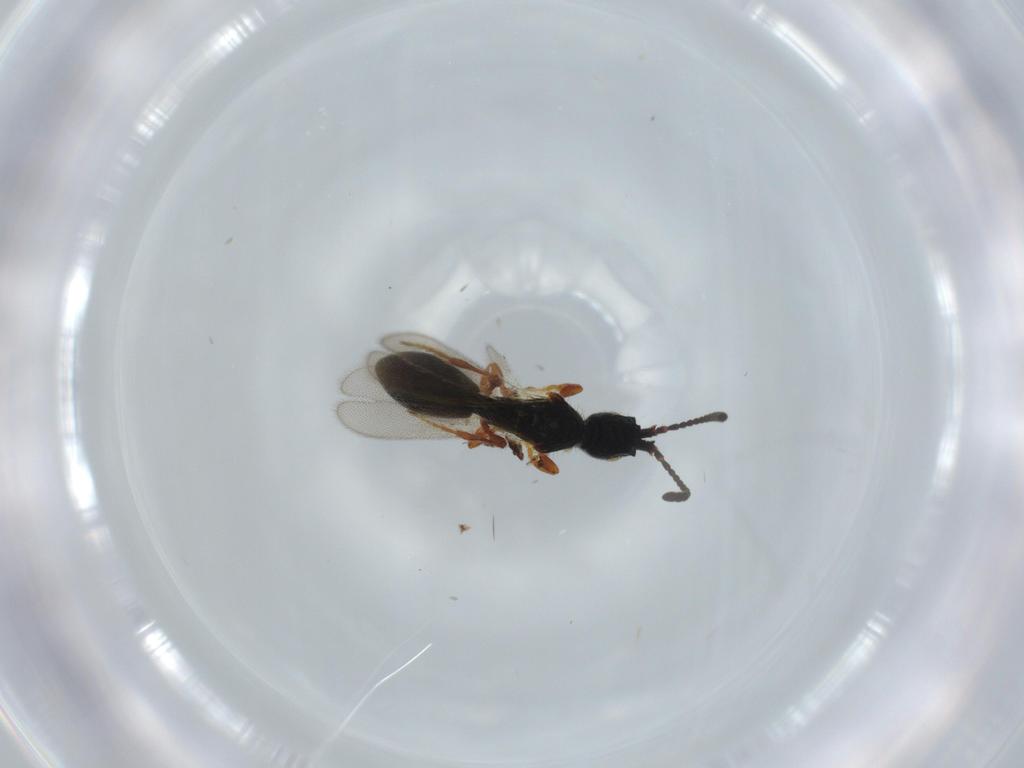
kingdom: Animalia
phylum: Arthropoda
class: Insecta
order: Hymenoptera
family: Diapriidae
